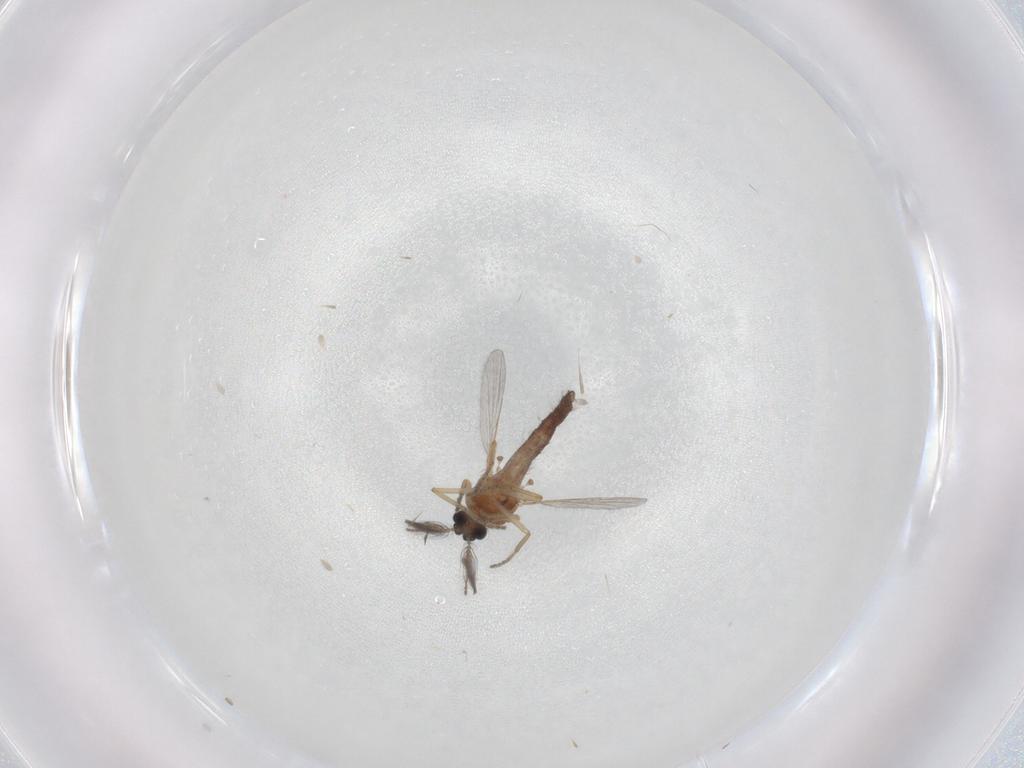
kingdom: Animalia
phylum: Arthropoda
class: Insecta
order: Diptera
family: Ceratopogonidae
